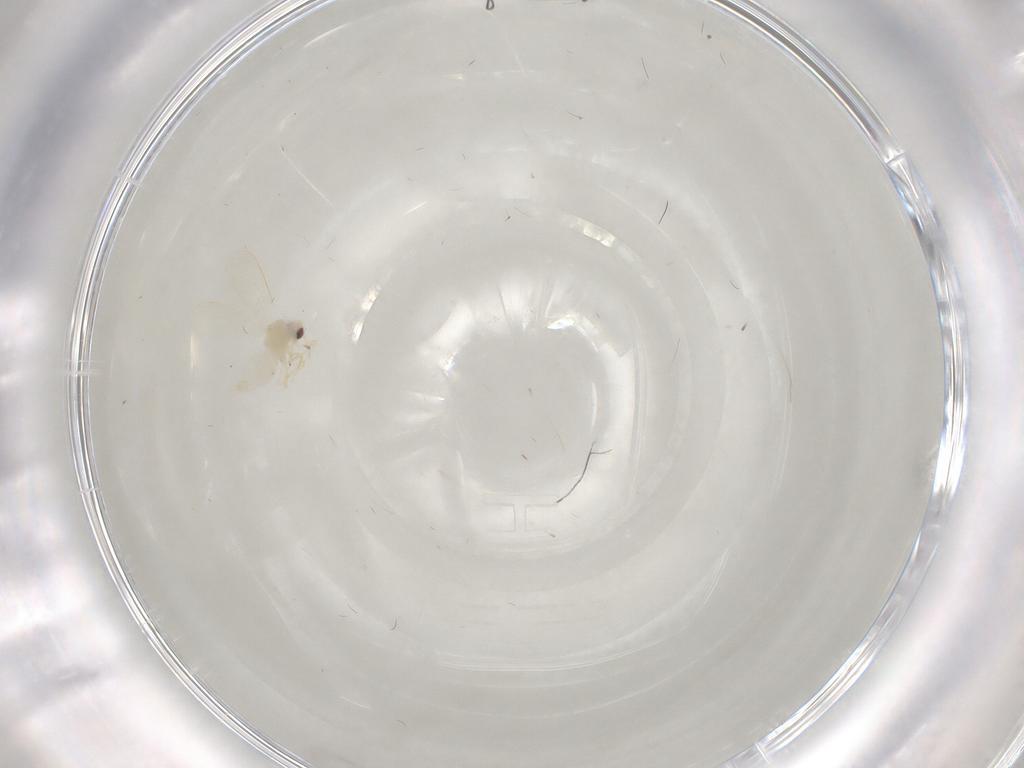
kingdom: Animalia
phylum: Arthropoda
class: Insecta
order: Hemiptera
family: Aleyrodidae
